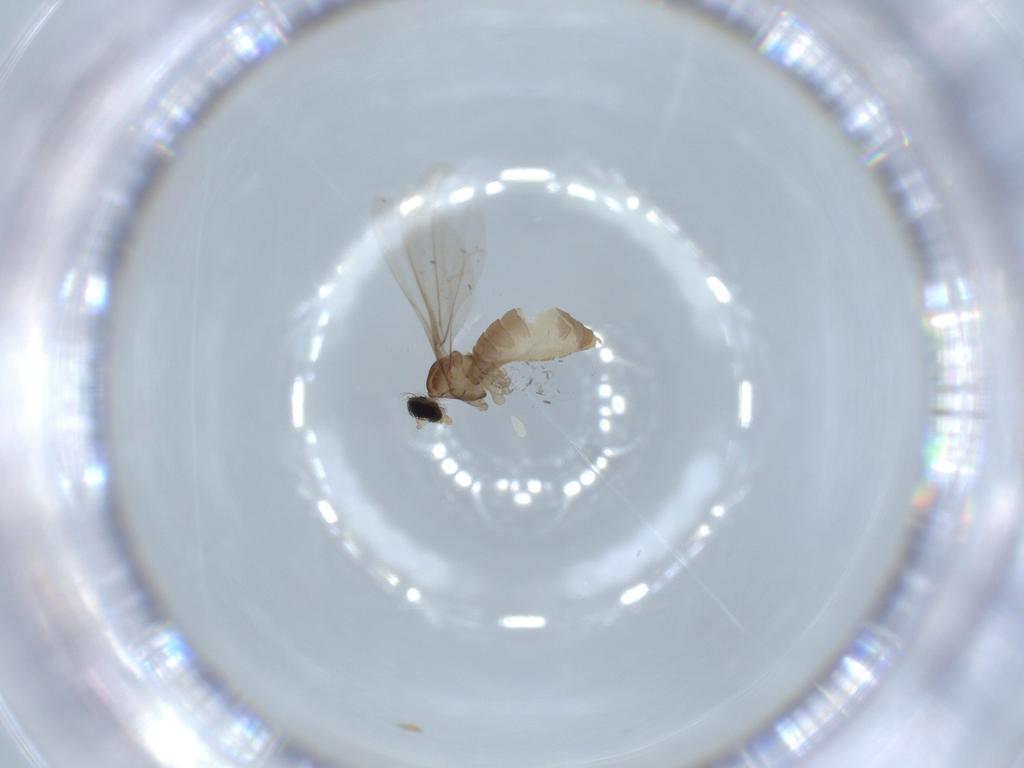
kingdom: Animalia
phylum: Arthropoda
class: Insecta
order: Diptera
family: Cecidomyiidae
